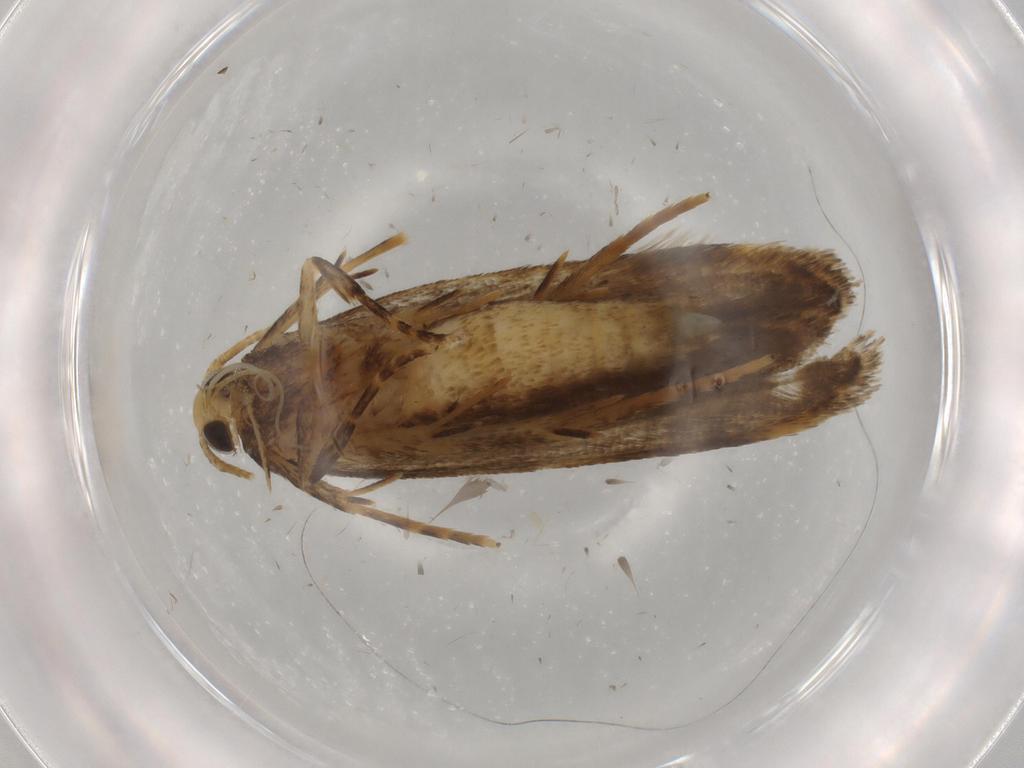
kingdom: Animalia
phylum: Arthropoda
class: Insecta
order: Lepidoptera
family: Autostichidae
